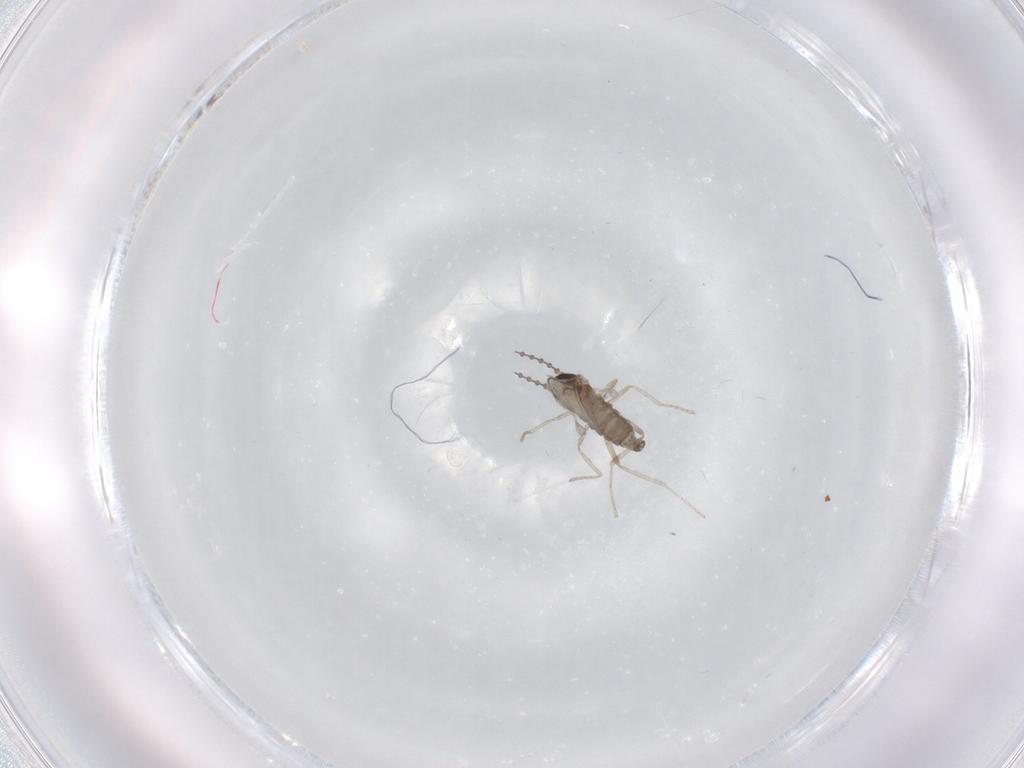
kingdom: Animalia
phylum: Arthropoda
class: Insecta
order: Diptera
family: Cecidomyiidae
